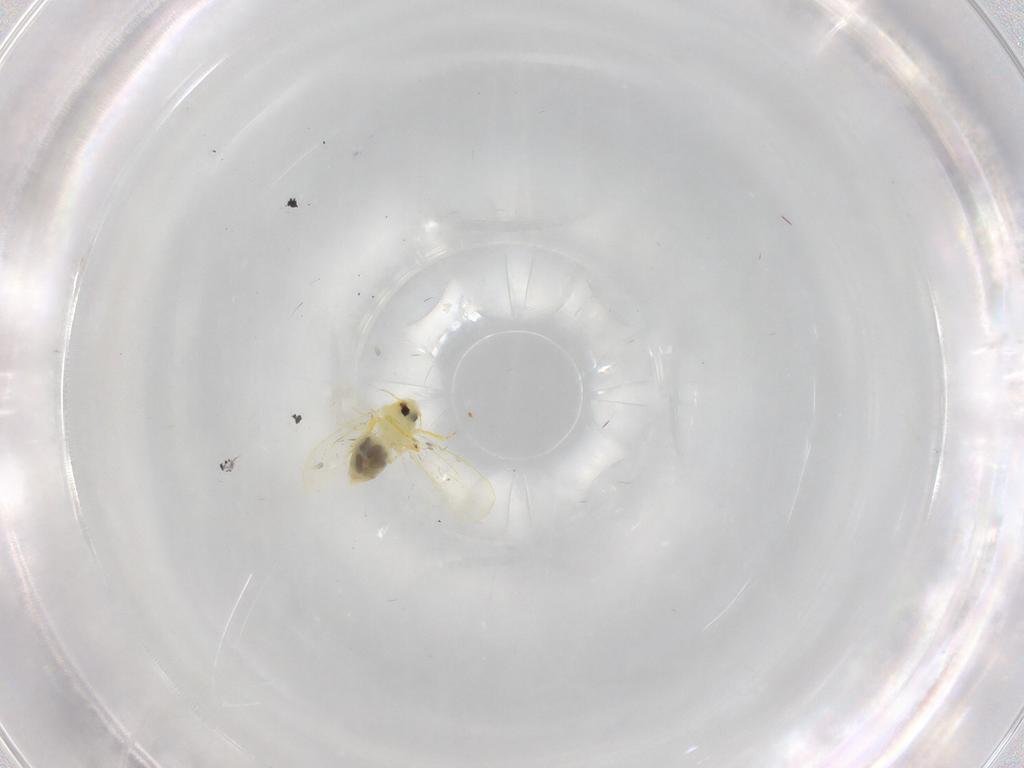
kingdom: Animalia
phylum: Arthropoda
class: Insecta
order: Hemiptera
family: Aleyrodidae
